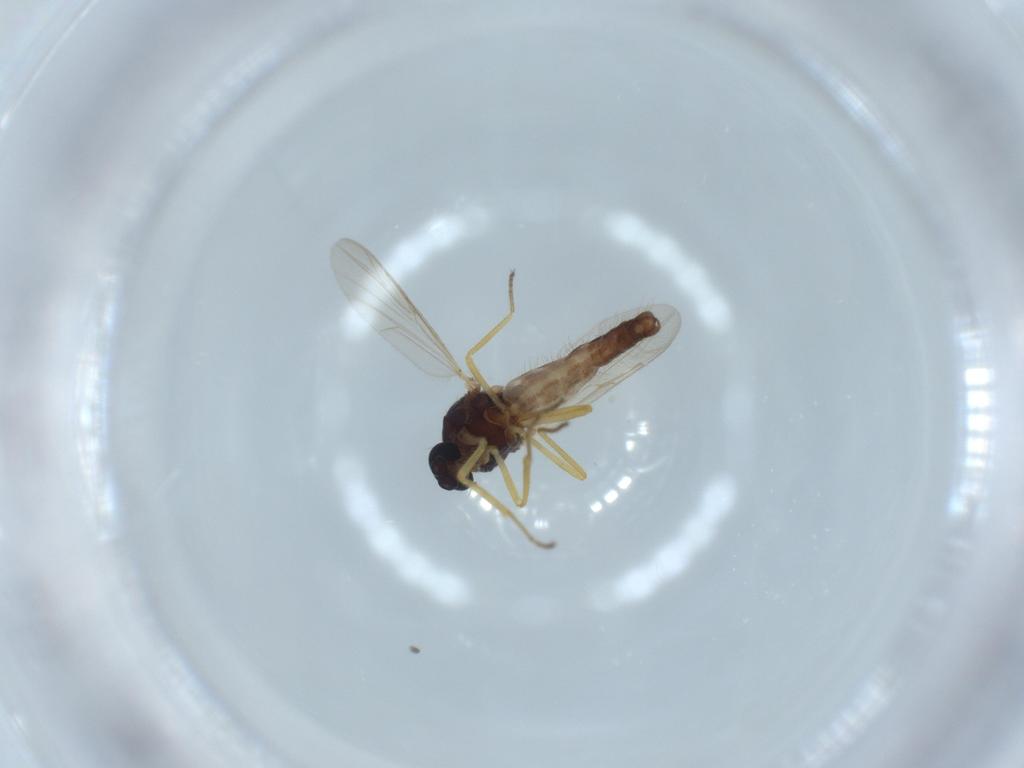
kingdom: Animalia
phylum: Arthropoda
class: Insecta
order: Diptera
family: Ceratopogonidae
